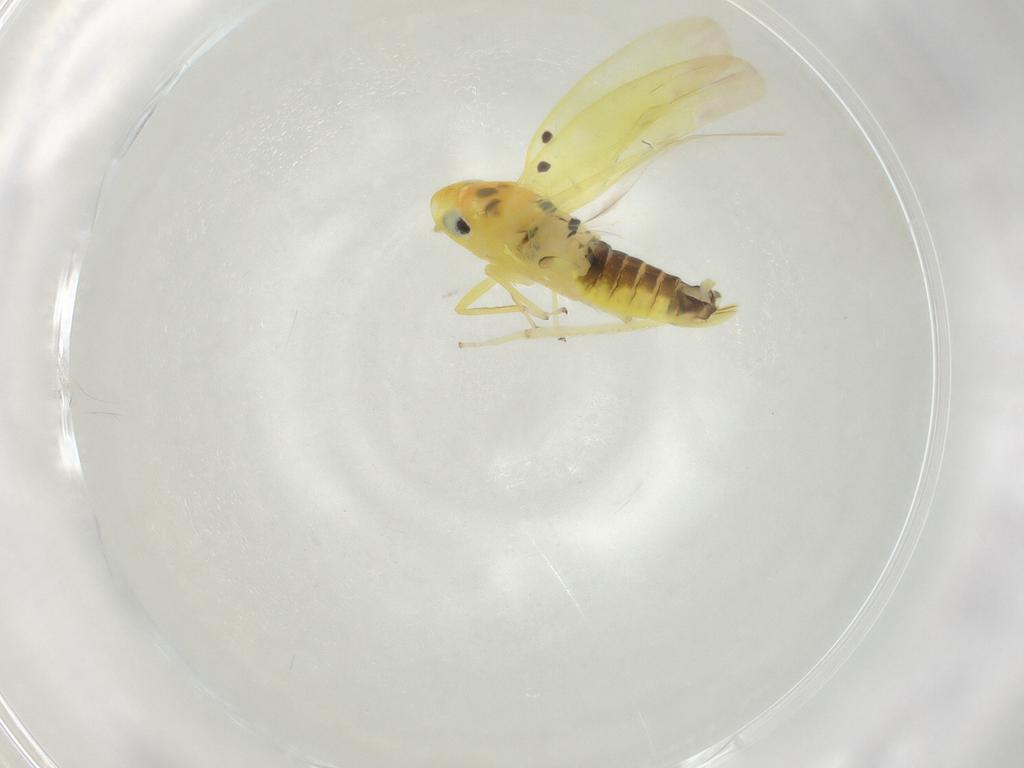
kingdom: Animalia
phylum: Arthropoda
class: Insecta
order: Hemiptera
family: Cicadellidae
